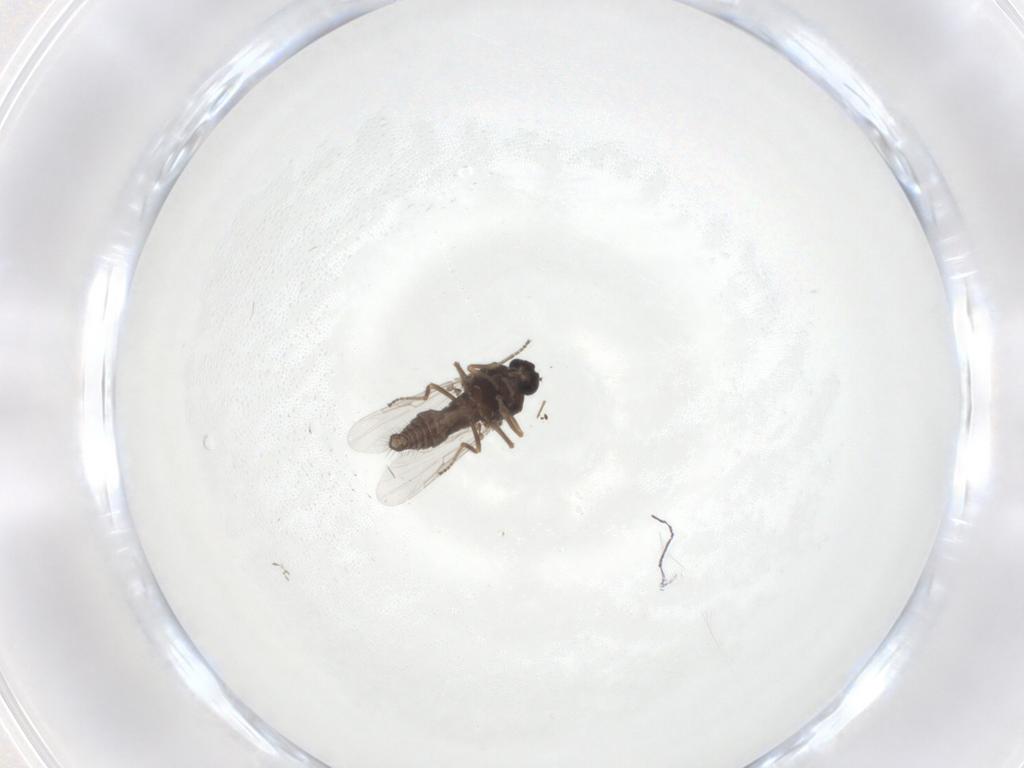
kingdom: Animalia
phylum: Arthropoda
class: Insecta
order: Diptera
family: Ceratopogonidae
